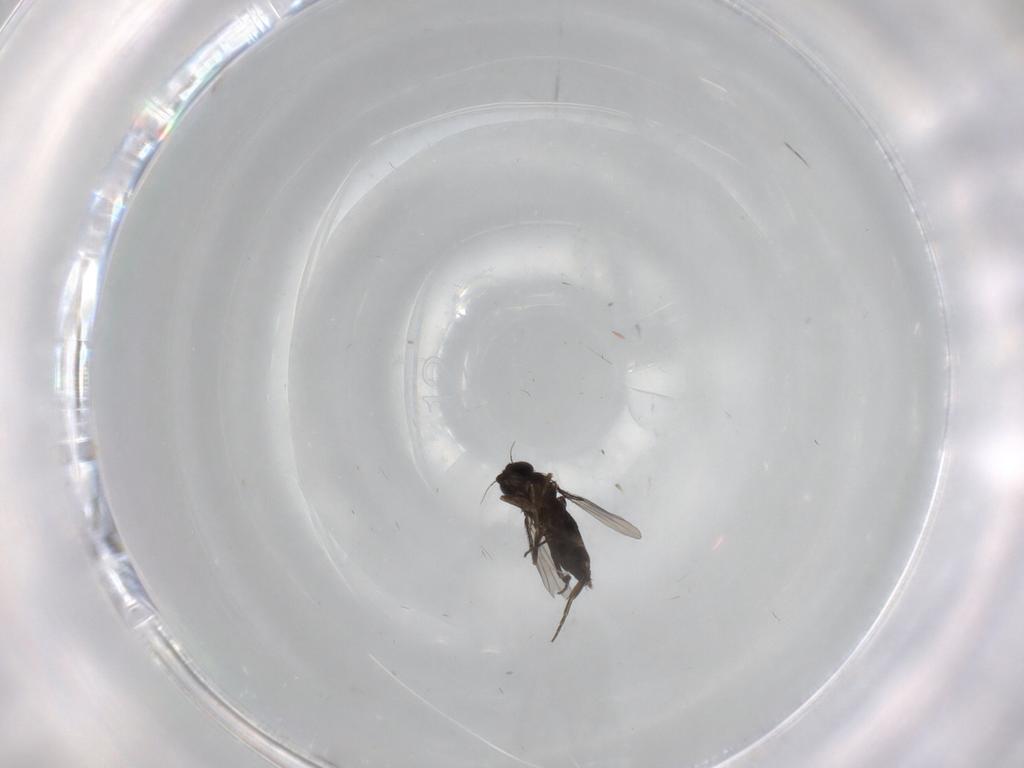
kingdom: Animalia
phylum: Arthropoda
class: Insecta
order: Diptera
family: Phoridae
